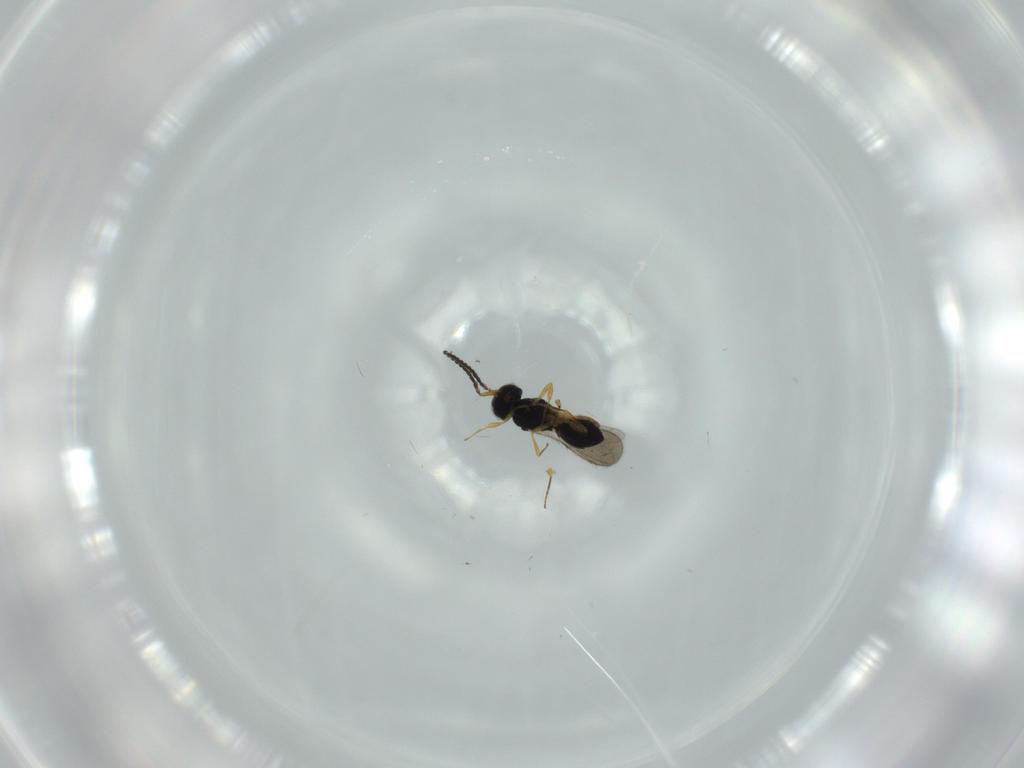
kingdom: Animalia
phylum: Arthropoda
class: Insecta
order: Hymenoptera
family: Scelionidae
